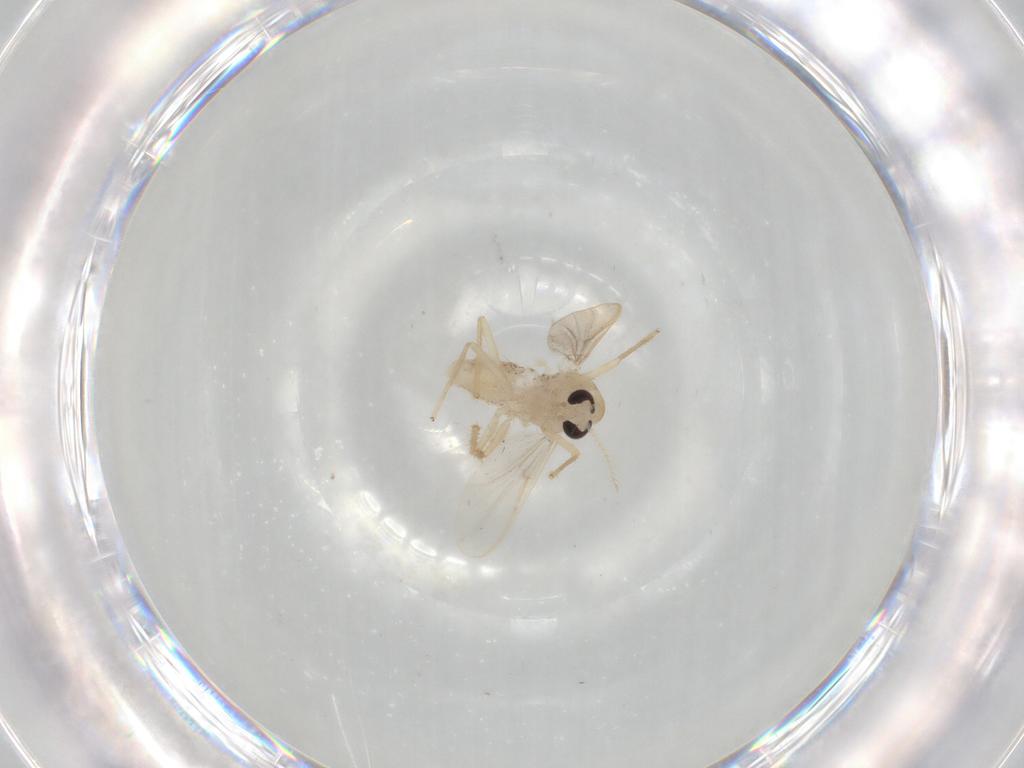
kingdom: Animalia
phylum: Arthropoda
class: Insecta
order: Diptera
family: Chironomidae
